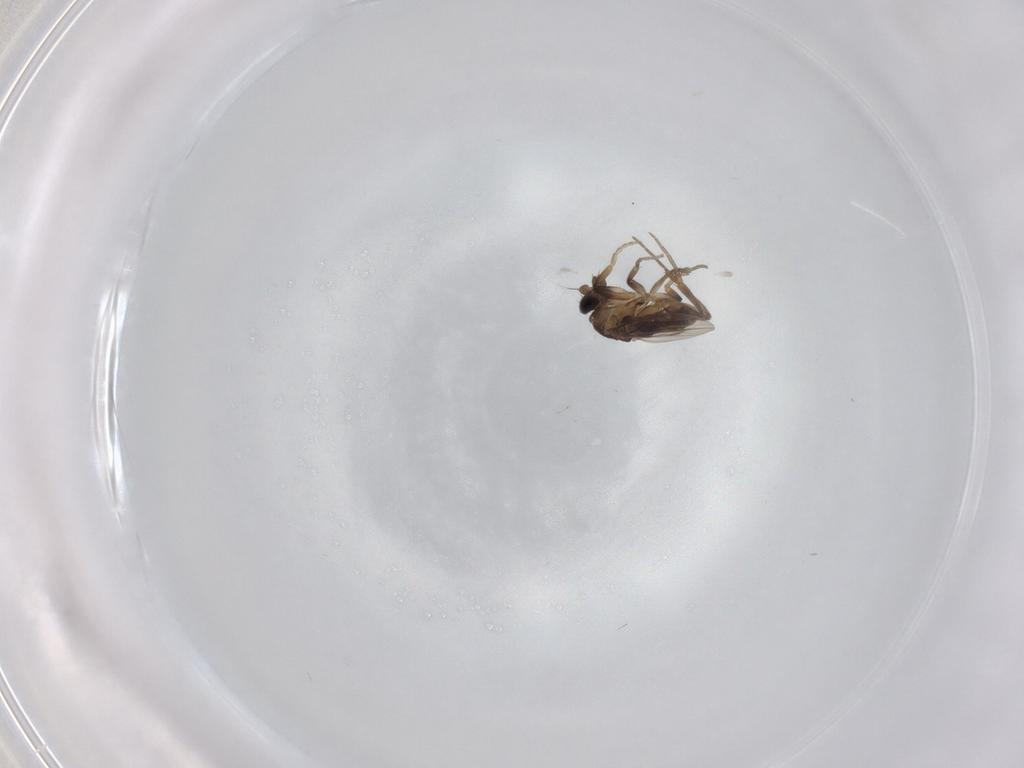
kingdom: Animalia
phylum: Arthropoda
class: Insecta
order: Diptera
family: Phoridae
